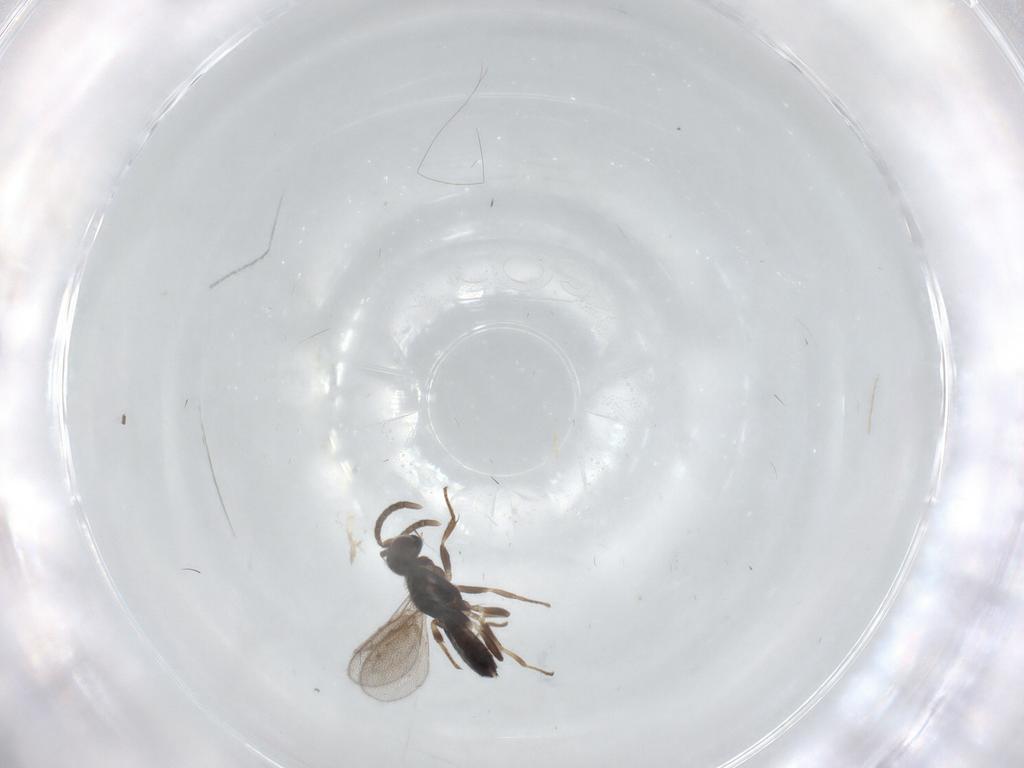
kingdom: Animalia
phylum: Arthropoda
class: Insecta
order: Hymenoptera
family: Eupelmidae
